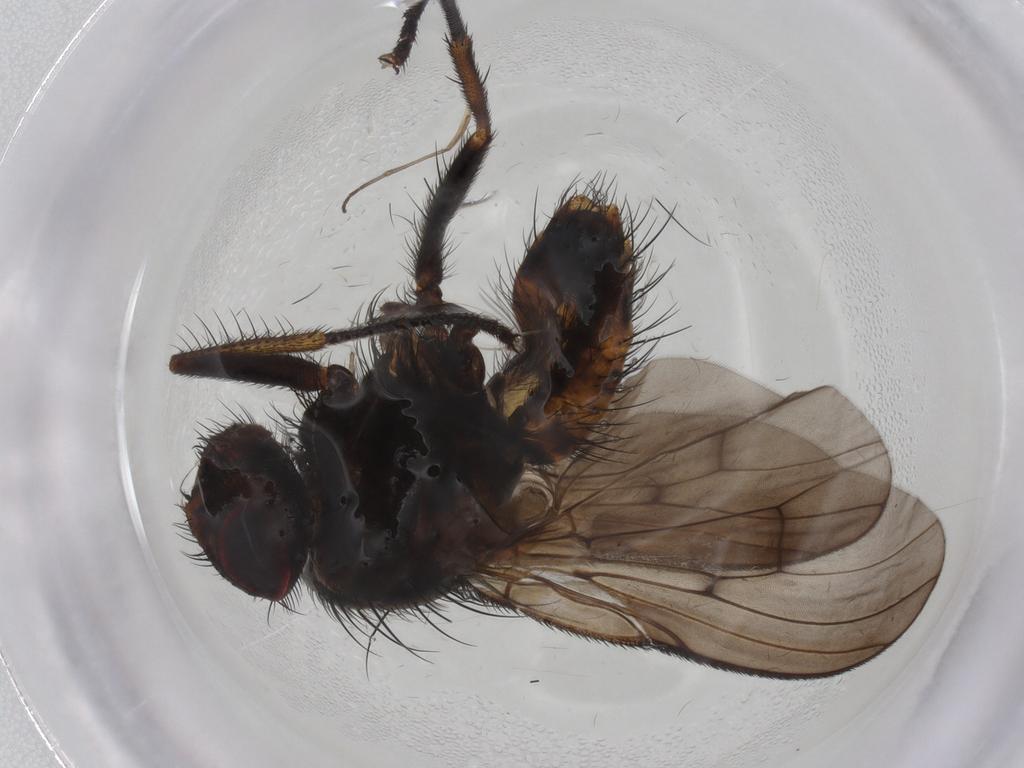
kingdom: Animalia
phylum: Arthropoda
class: Insecta
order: Diptera
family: Muscidae
